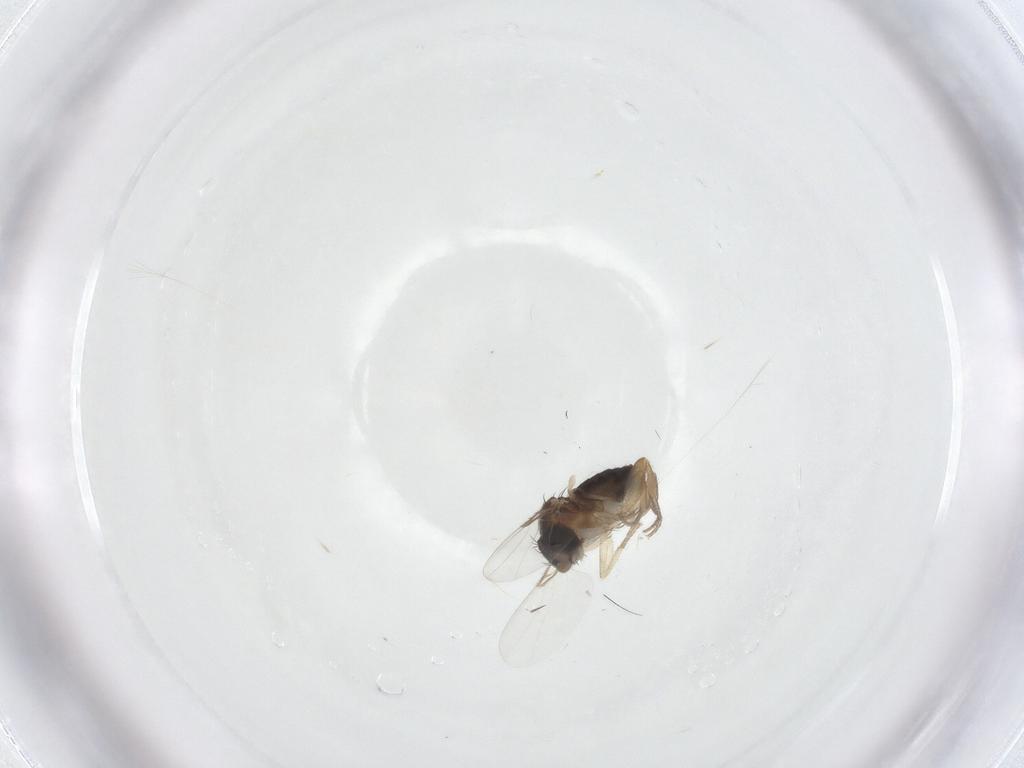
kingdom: Animalia
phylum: Arthropoda
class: Insecta
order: Diptera
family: Phoridae
